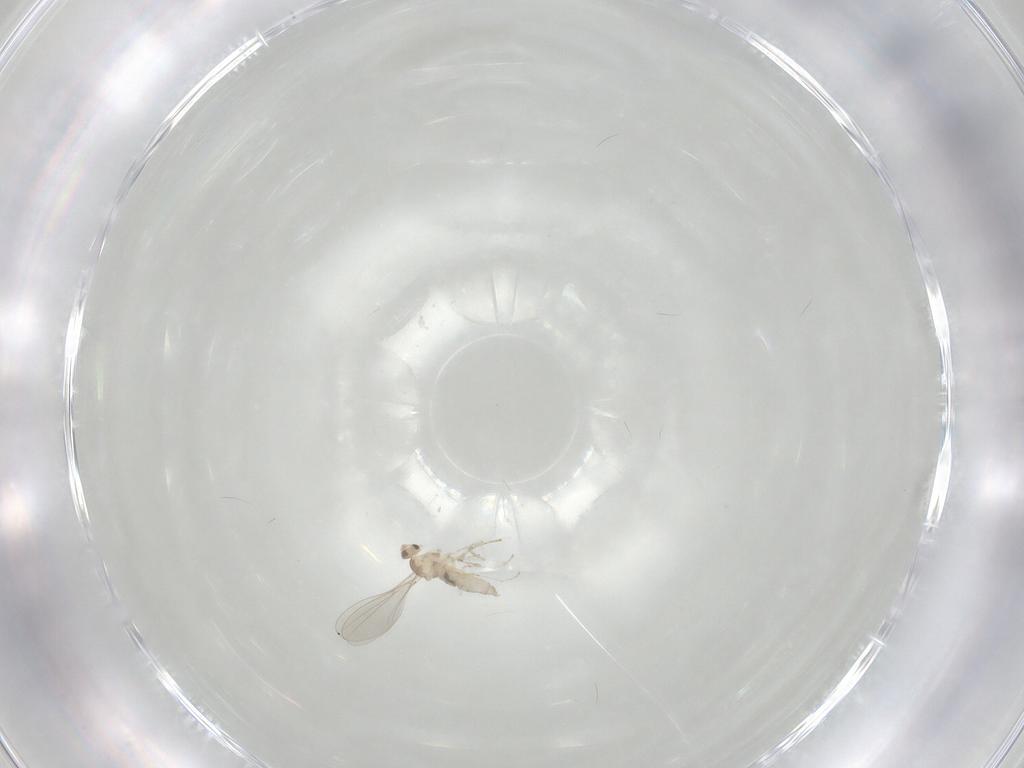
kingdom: Animalia
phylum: Arthropoda
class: Insecta
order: Diptera
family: Cecidomyiidae
